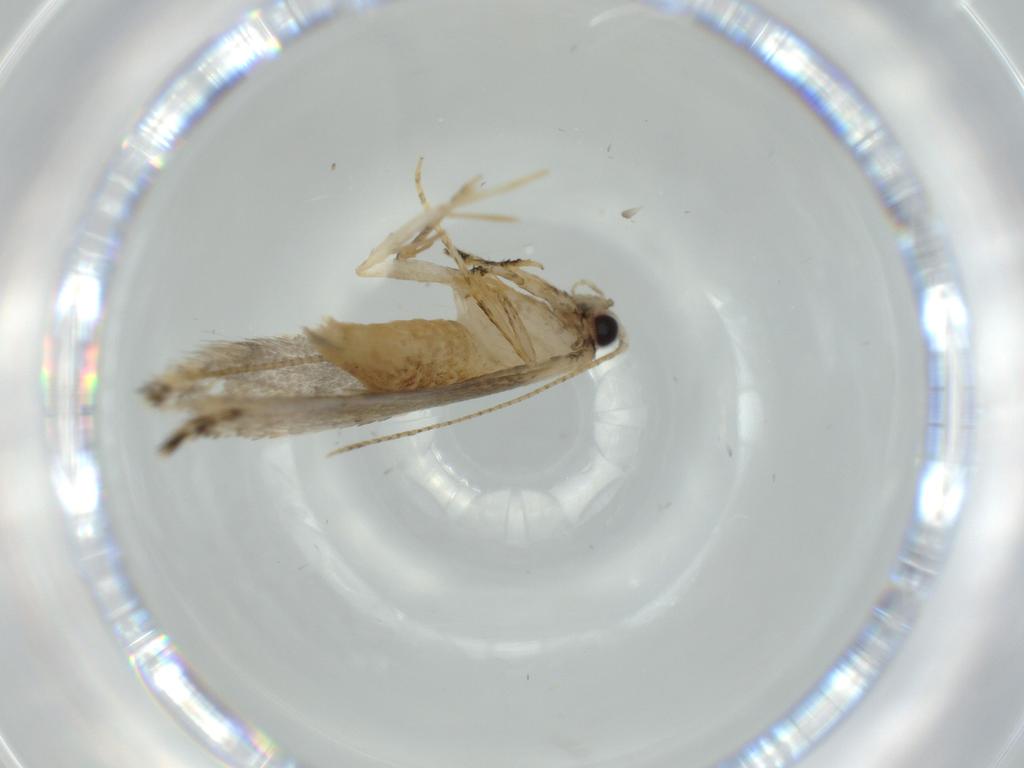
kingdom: Animalia
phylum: Arthropoda
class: Insecta
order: Lepidoptera
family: Tineidae
